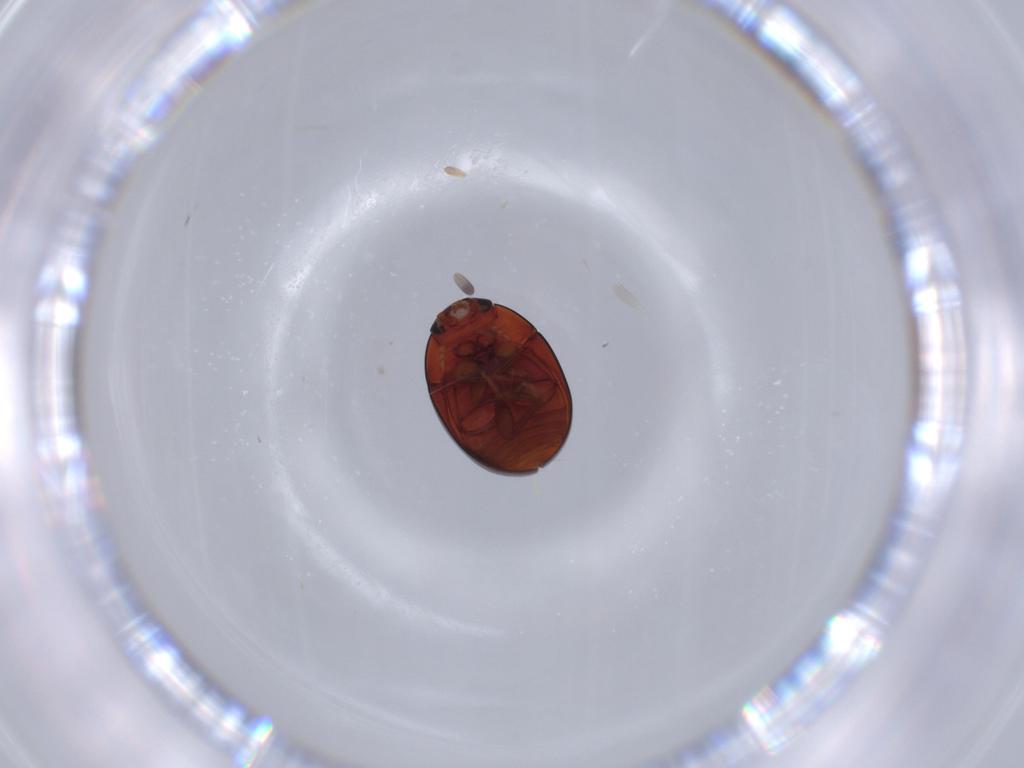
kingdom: Animalia
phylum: Arthropoda
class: Insecta
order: Coleoptera
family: Phalacridae
